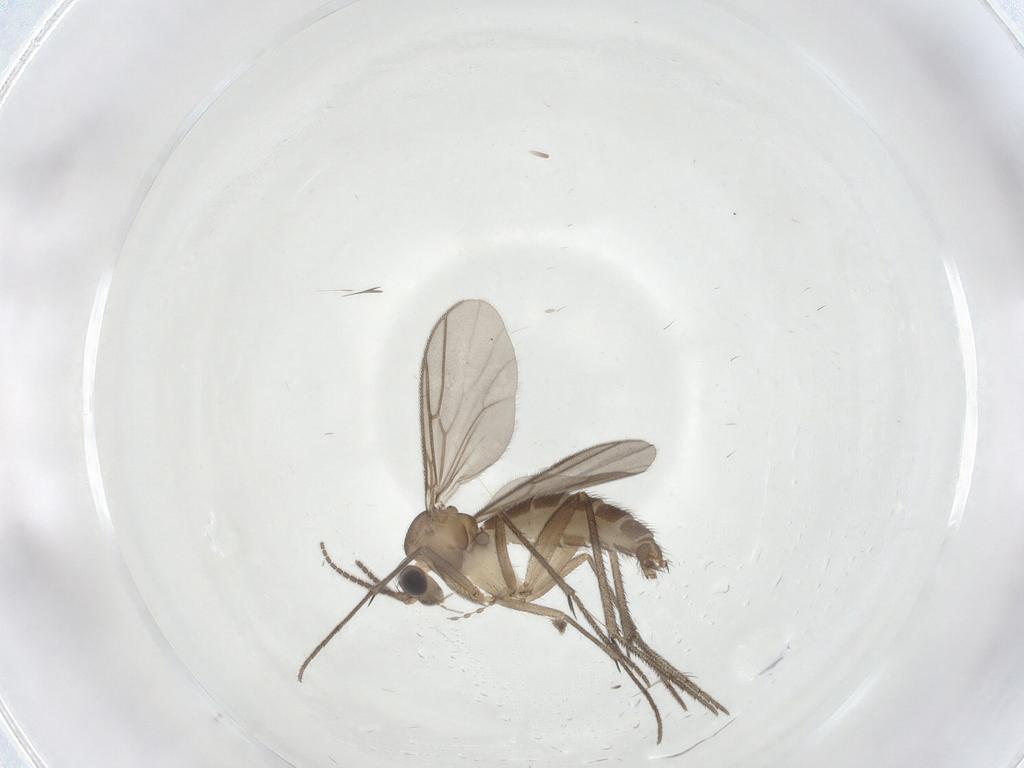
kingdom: Animalia
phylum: Arthropoda
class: Insecta
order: Diptera
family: Mycetophilidae
